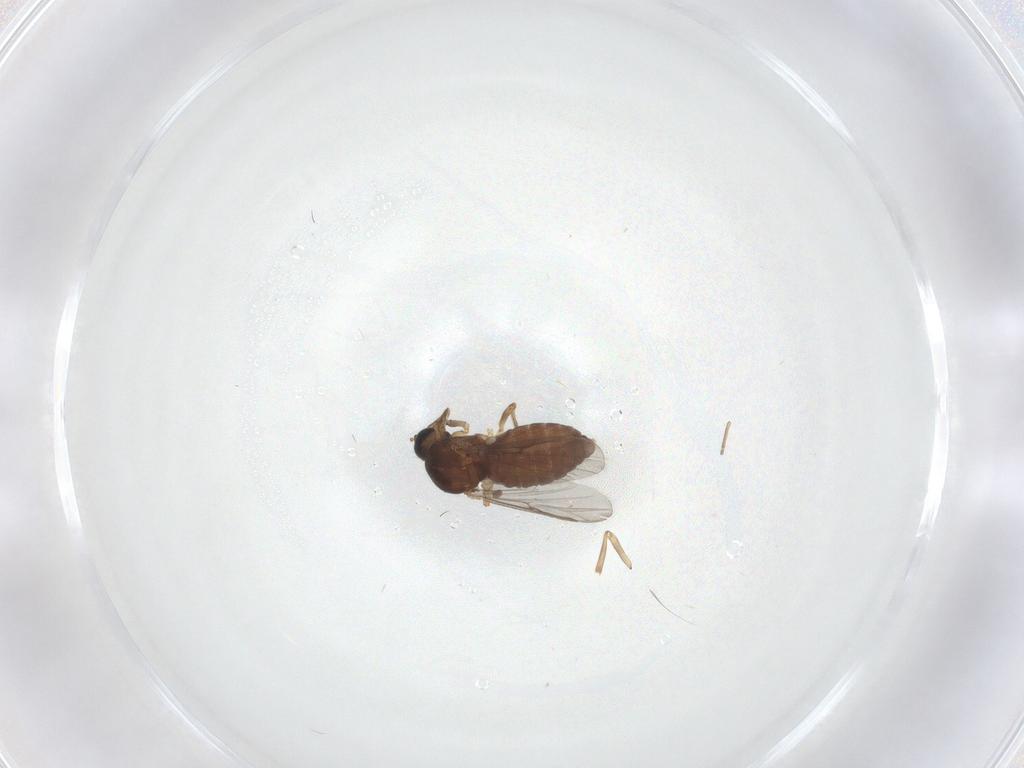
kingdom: Animalia
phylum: Arthropoda
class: Insecta
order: Diptera
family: Ceratopogonidae
